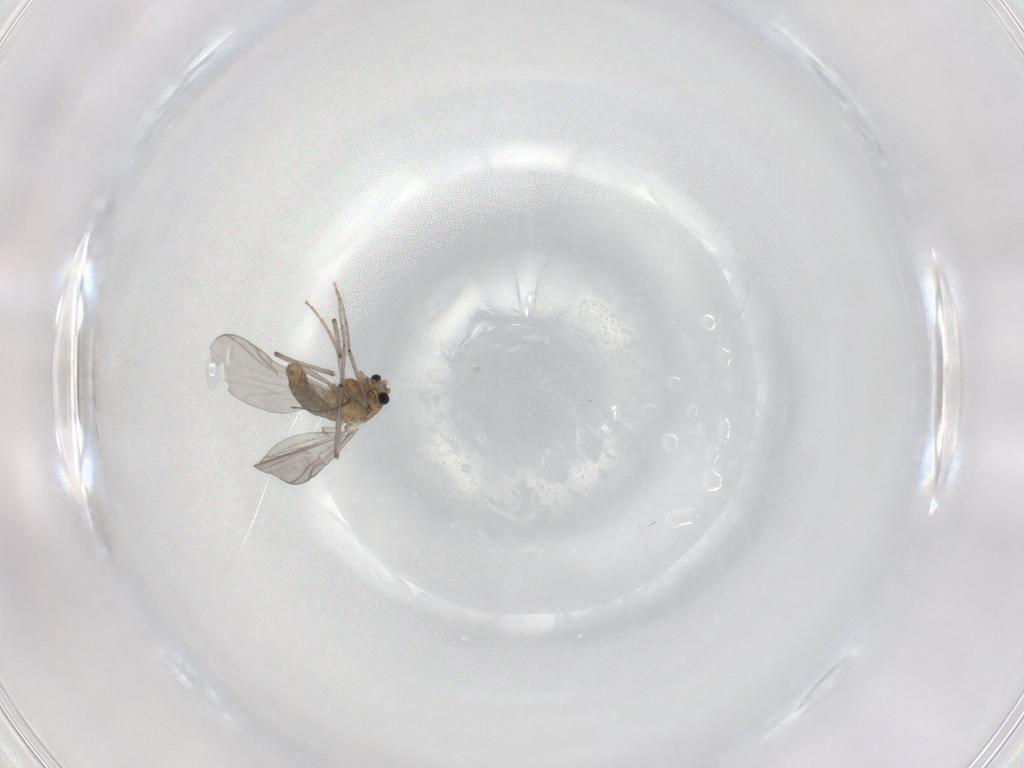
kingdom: Animalia
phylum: Arthropoda
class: Insecta
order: Diptera
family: Chironomidae
